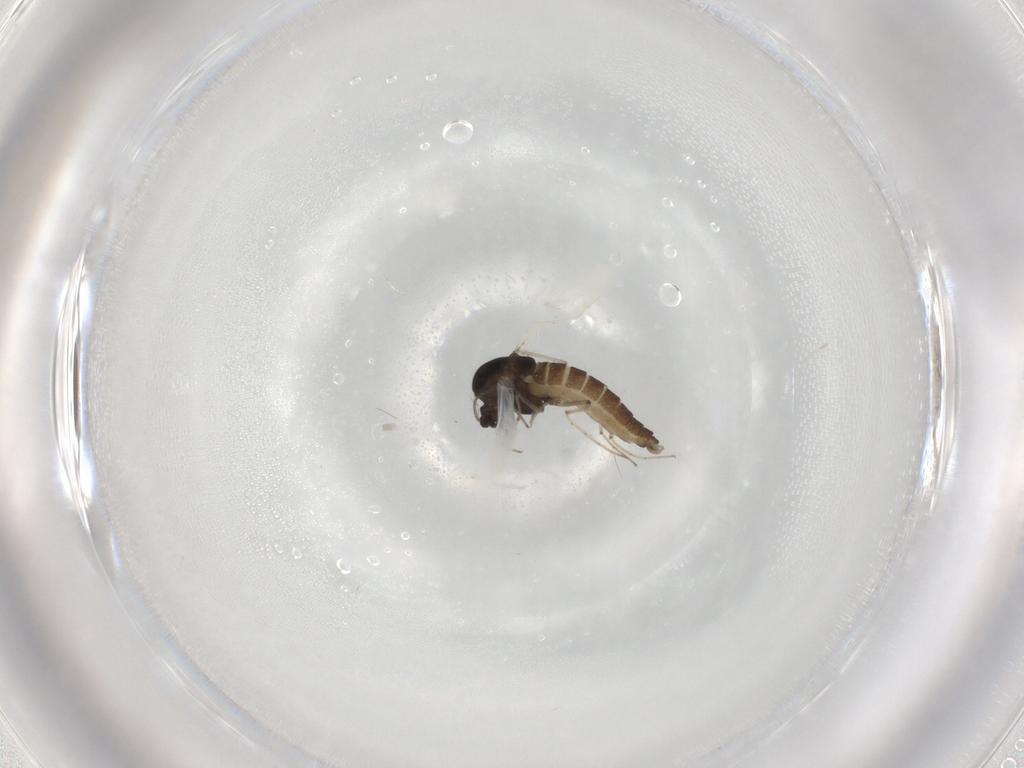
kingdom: Animalia
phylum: Arthropoda
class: Insecta
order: Diptera
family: Chironomidae
